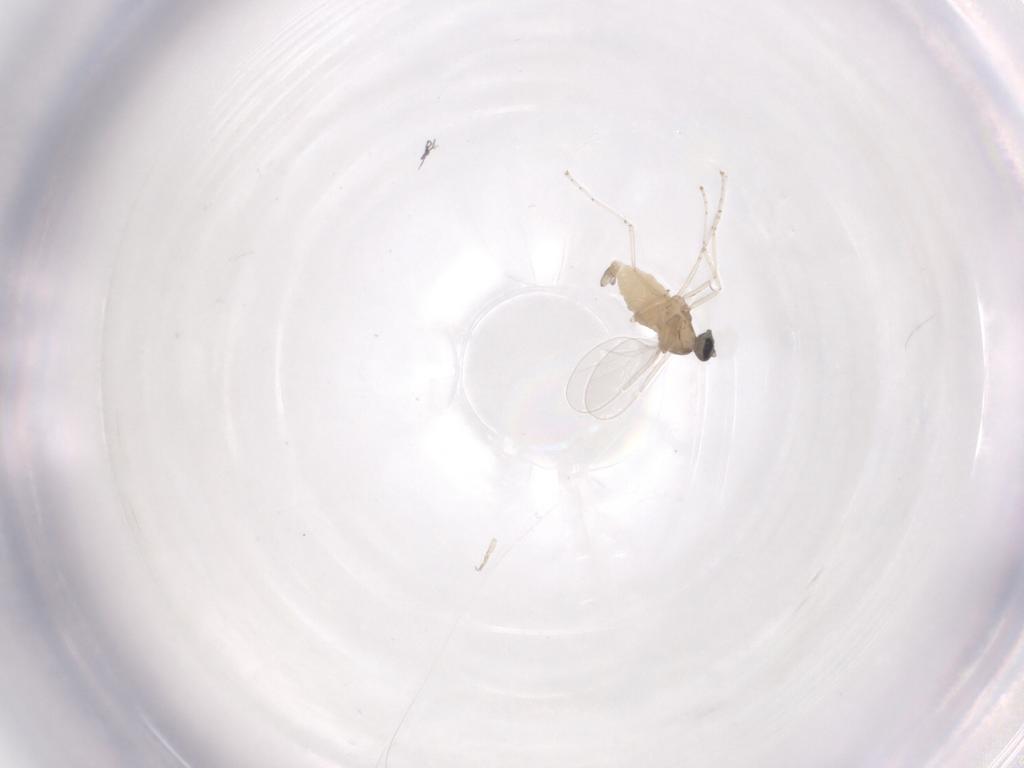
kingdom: Animalia
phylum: Arthropoda
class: Insecta
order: Diptera
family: Cecidomyiidae
